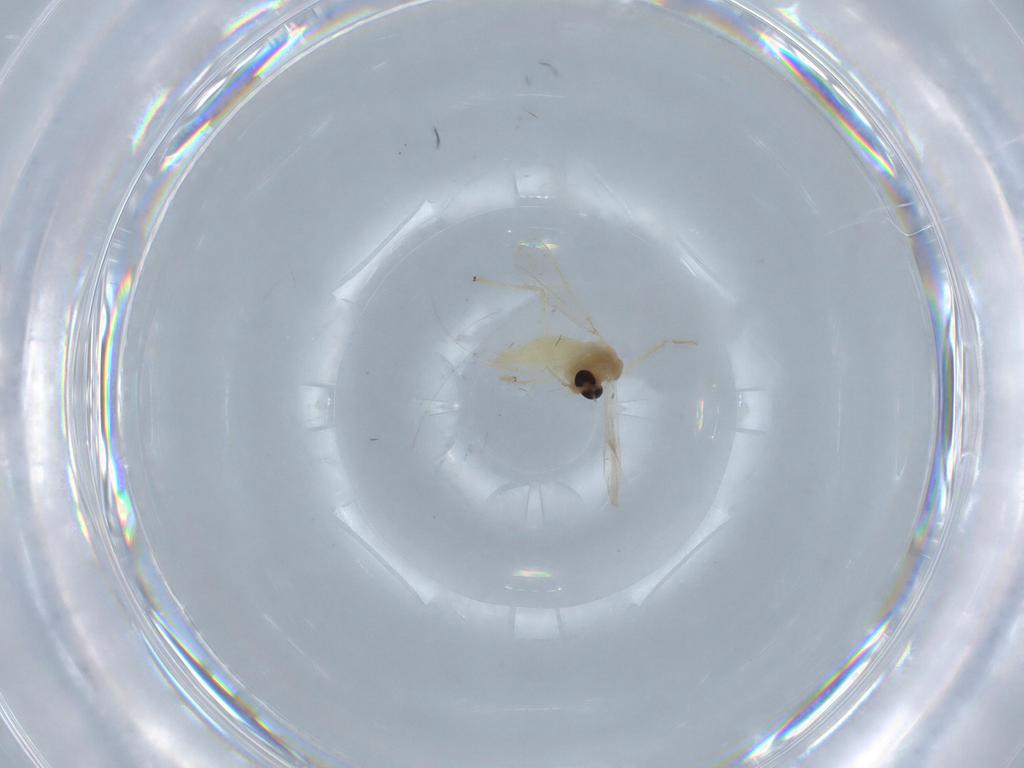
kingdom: Animalia
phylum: Arthropoda
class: Insecta
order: Diptera
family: Chironomidae
